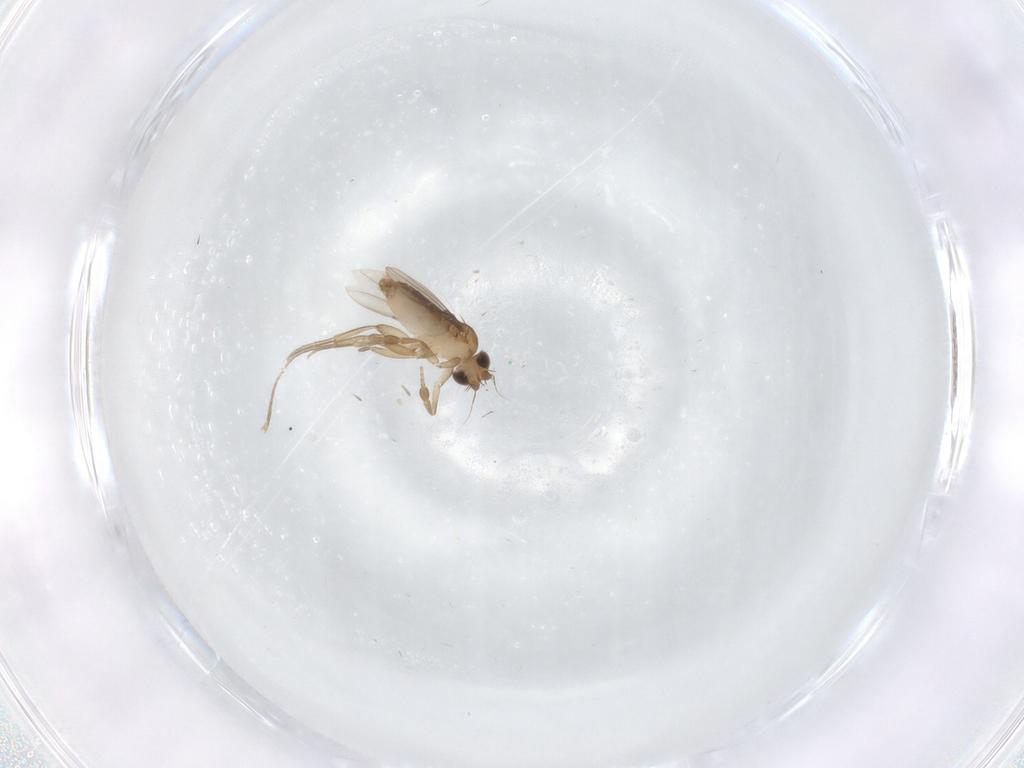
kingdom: Animalia
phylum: Arthropoda
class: Insecta
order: Diptera
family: Phoridae
